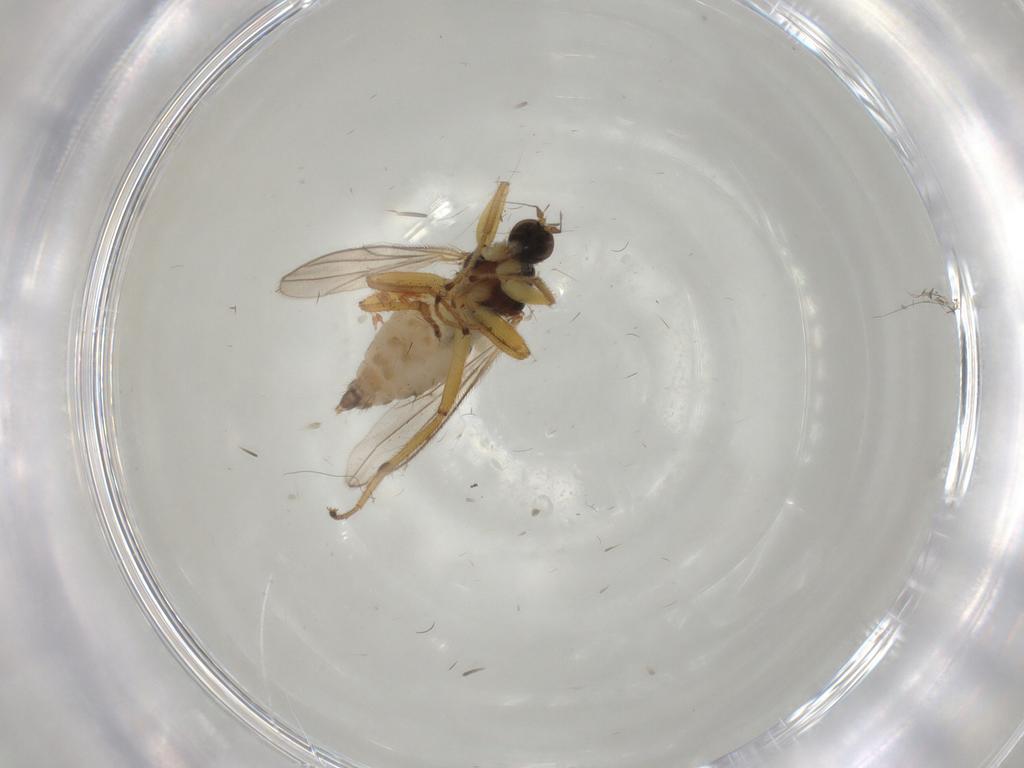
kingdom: Animalia
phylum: Arthropoda
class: Insecta
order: Diptera
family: Hybotidae
